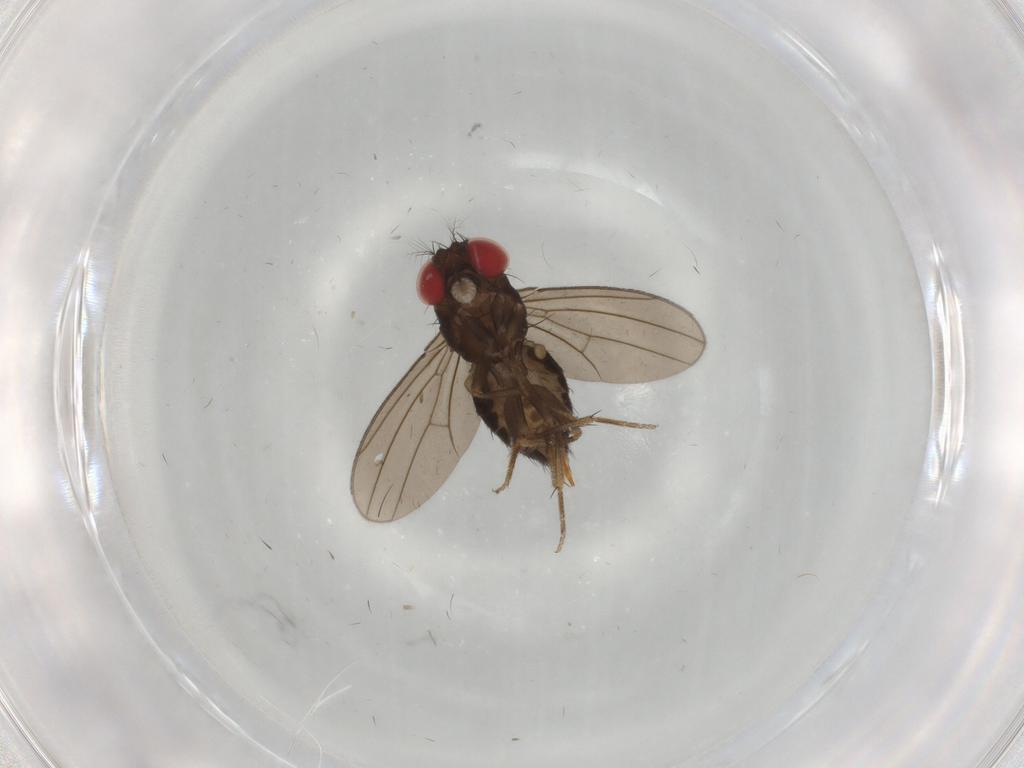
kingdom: Animalia
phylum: Arthropoda
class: Insecta
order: Diptera
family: Drosophilidae
